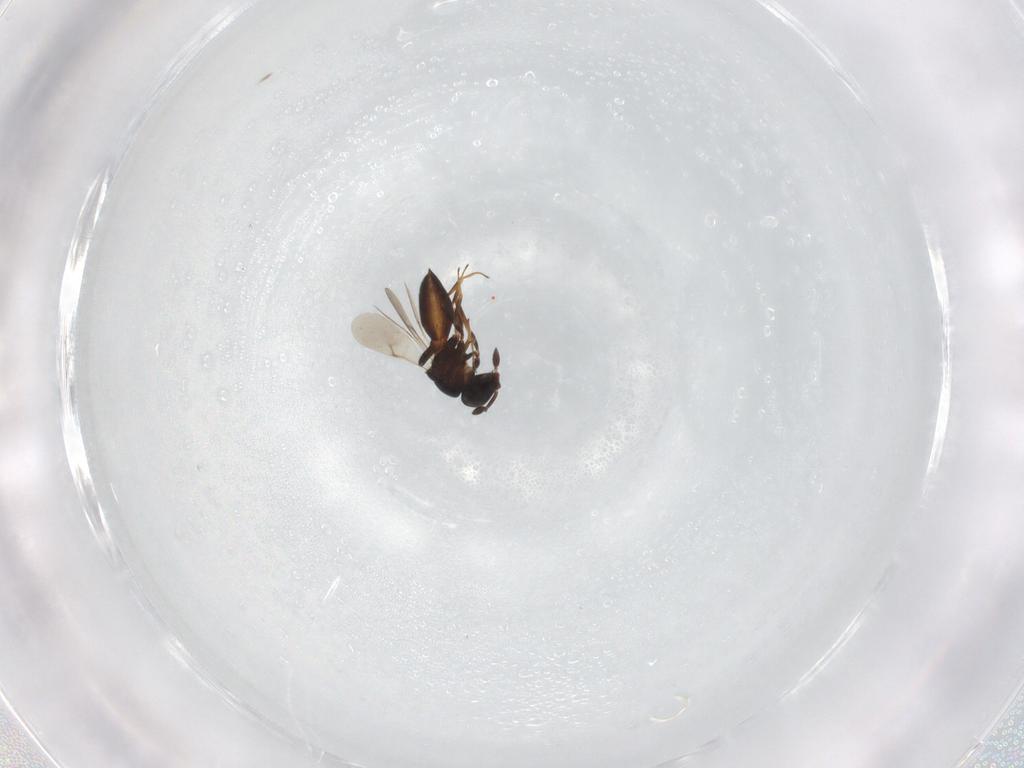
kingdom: Animalia
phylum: Arthropoda
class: Insecta
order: Hymenoptera
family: Scelionidae
